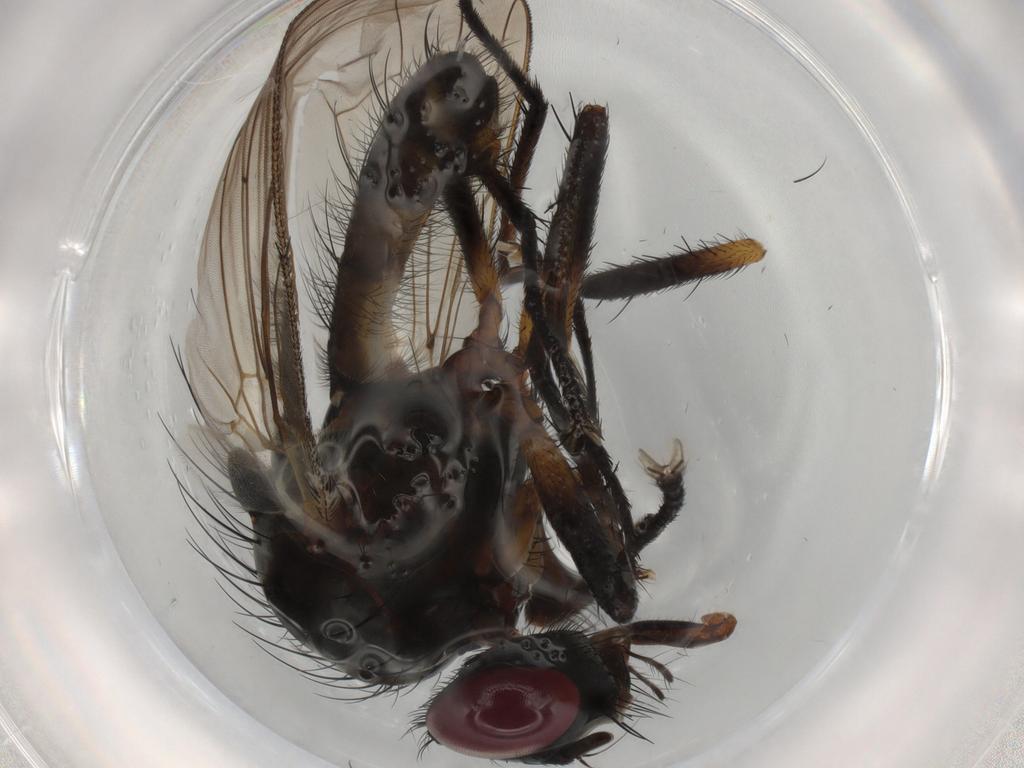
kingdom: Animalia
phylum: Arthropoda
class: Insecta
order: Diptera
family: Anthomyiidae
